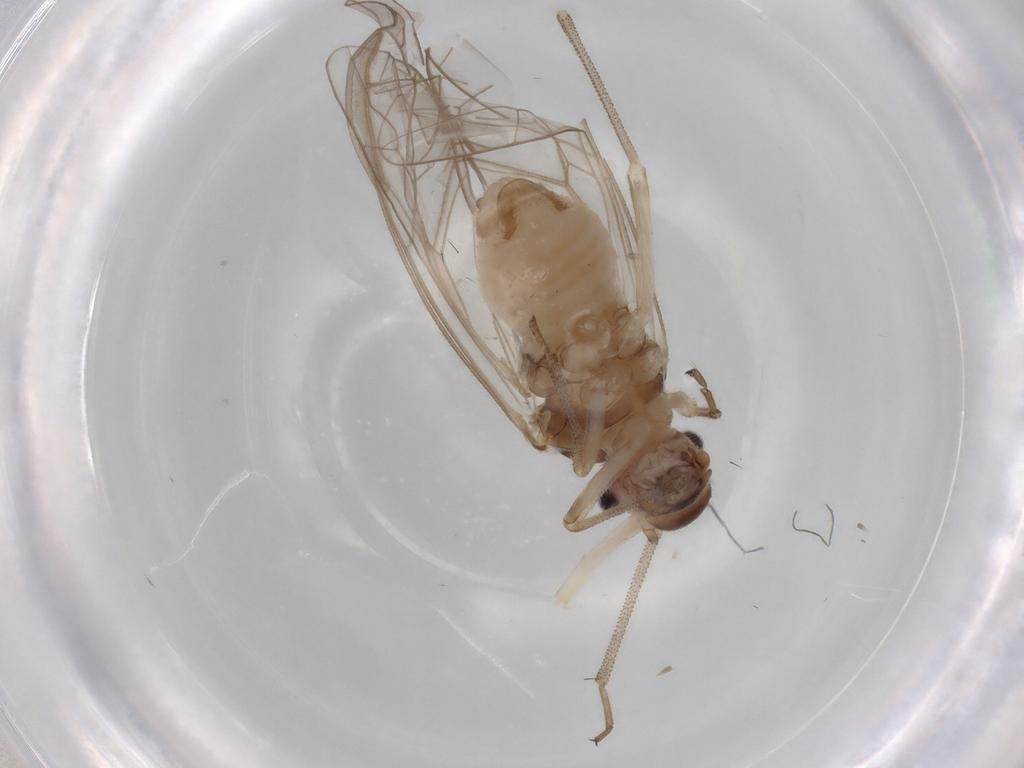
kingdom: Animalia
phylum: Arthropoda
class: Insecta
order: Psocodea
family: Stenopsocidae
